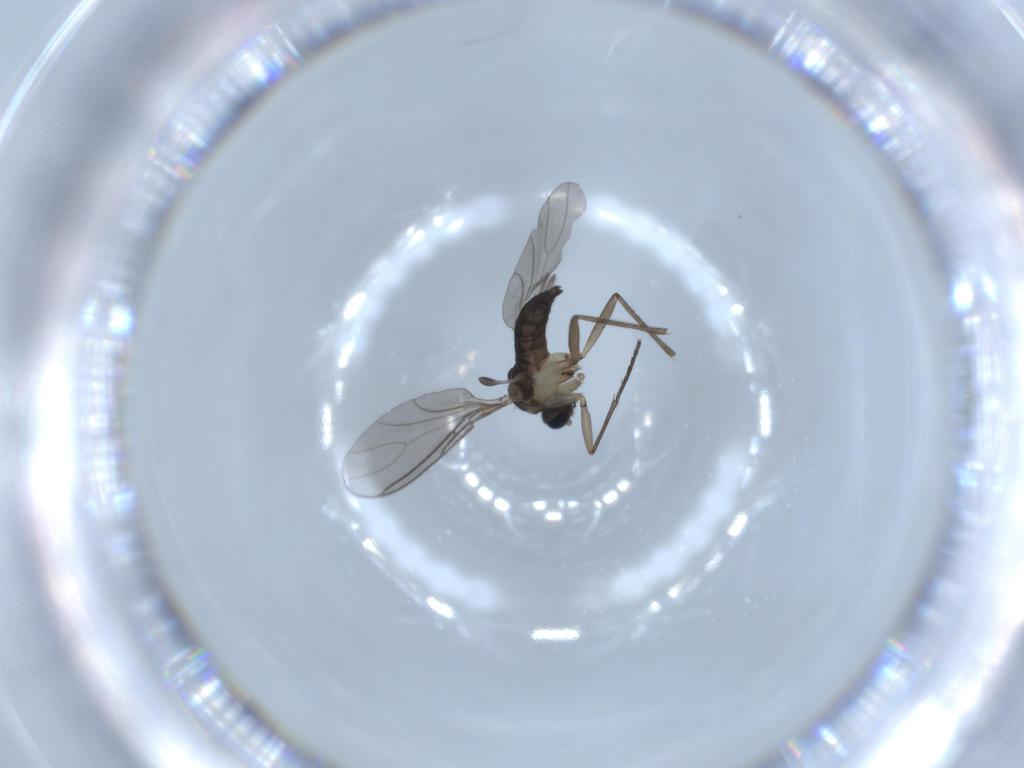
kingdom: Animalia
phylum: Arthropoda
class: Insecta
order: Diptera
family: Sciaridae
